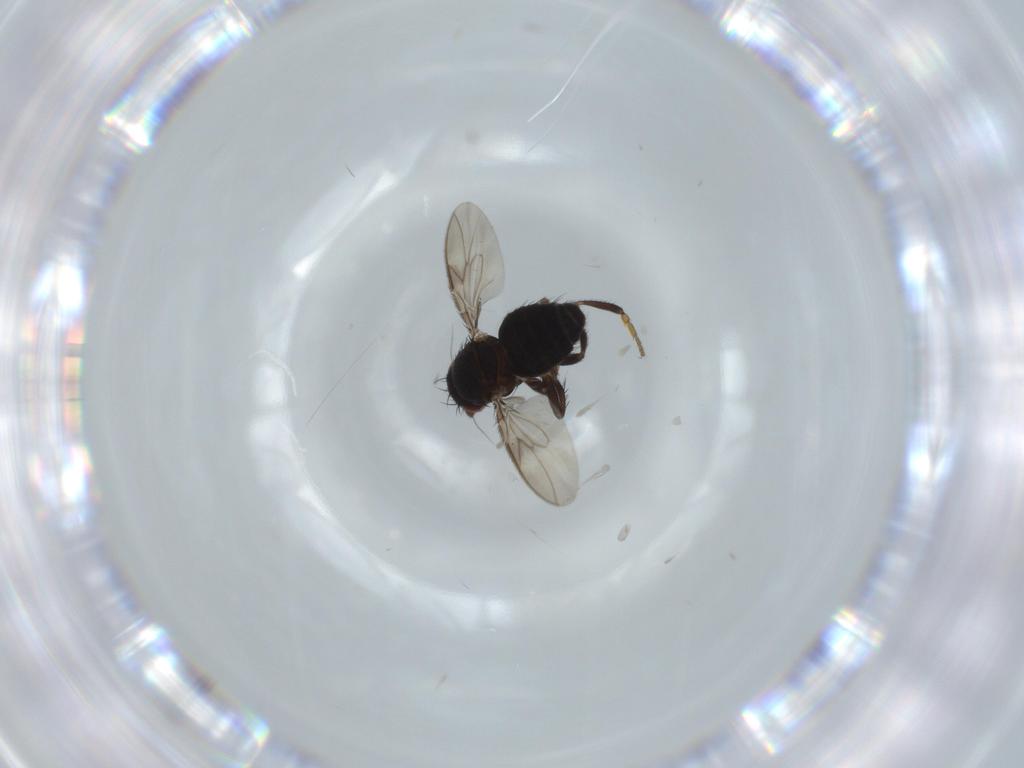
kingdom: Animalia
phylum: Arthropoda
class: Insecta
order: Diptera
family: Sphaeroceridae
